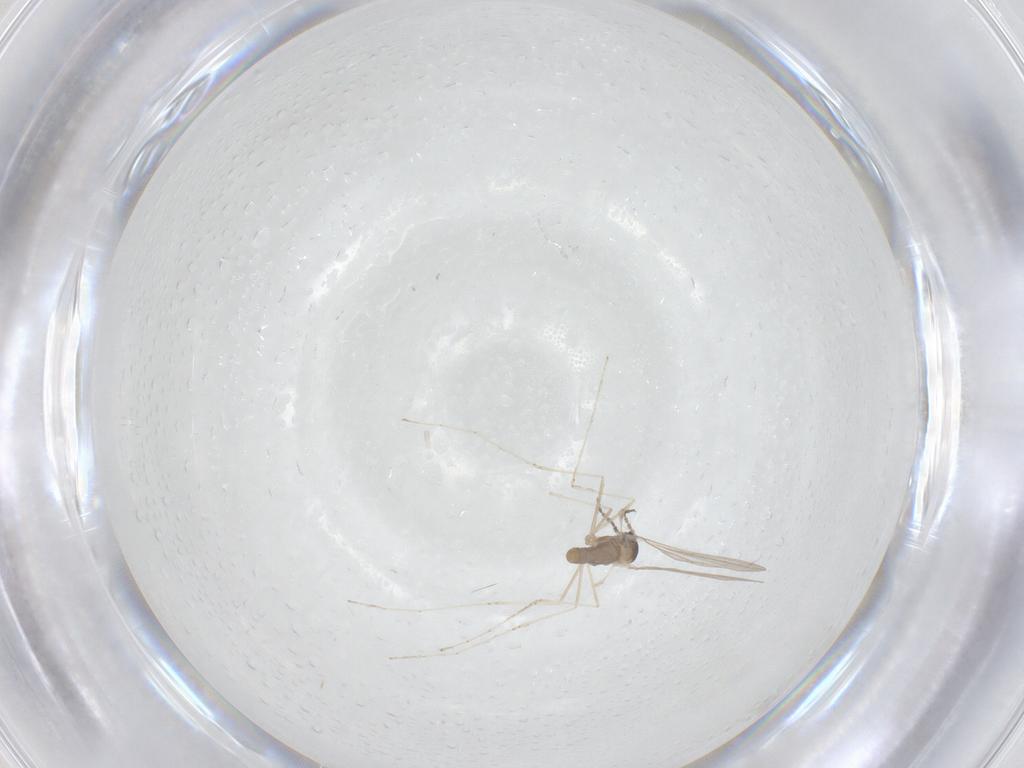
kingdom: Animalia
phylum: Arthropoda
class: Insecta
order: Diptera
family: Cecidomyiidae
